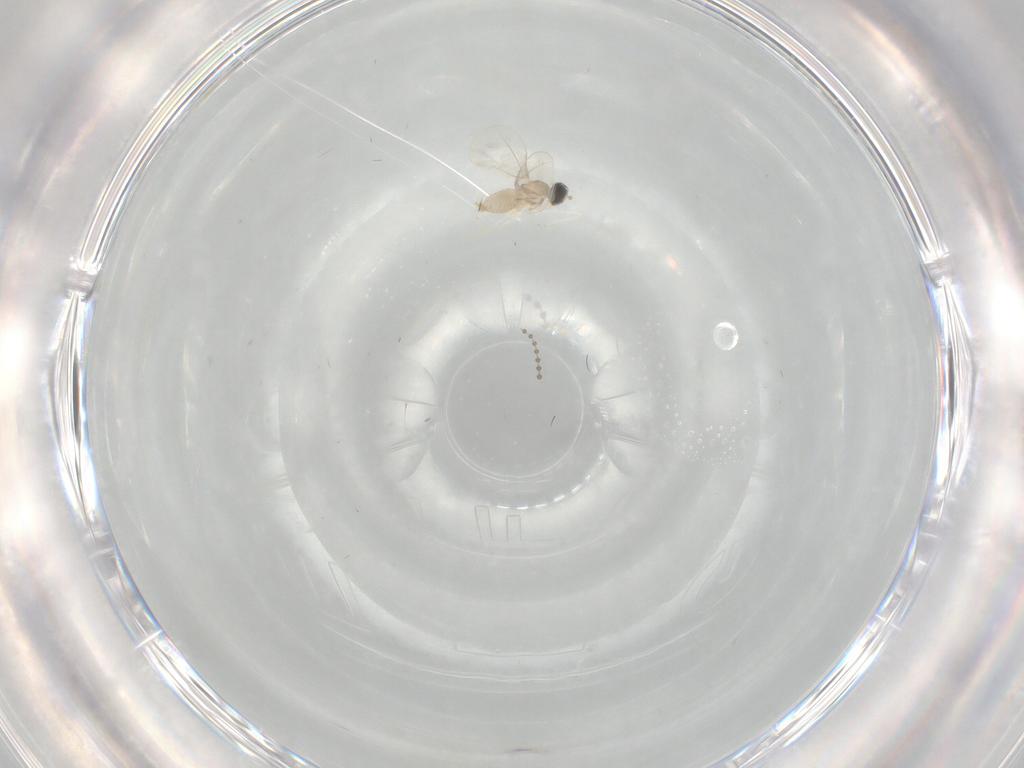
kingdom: Animalia
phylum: Arthropoda
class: Insecta
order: Diptera
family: Psychodidae
